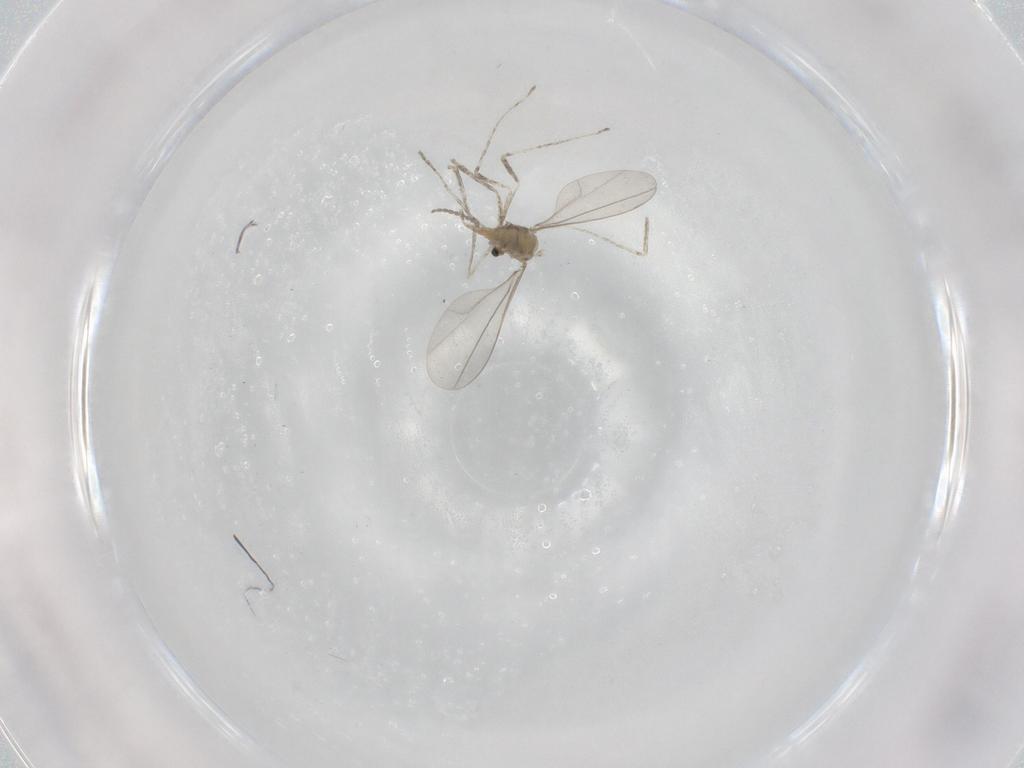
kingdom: Animalia
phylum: Arthropoda
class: Insecta
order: Diptera
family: Cecidomyiidae
